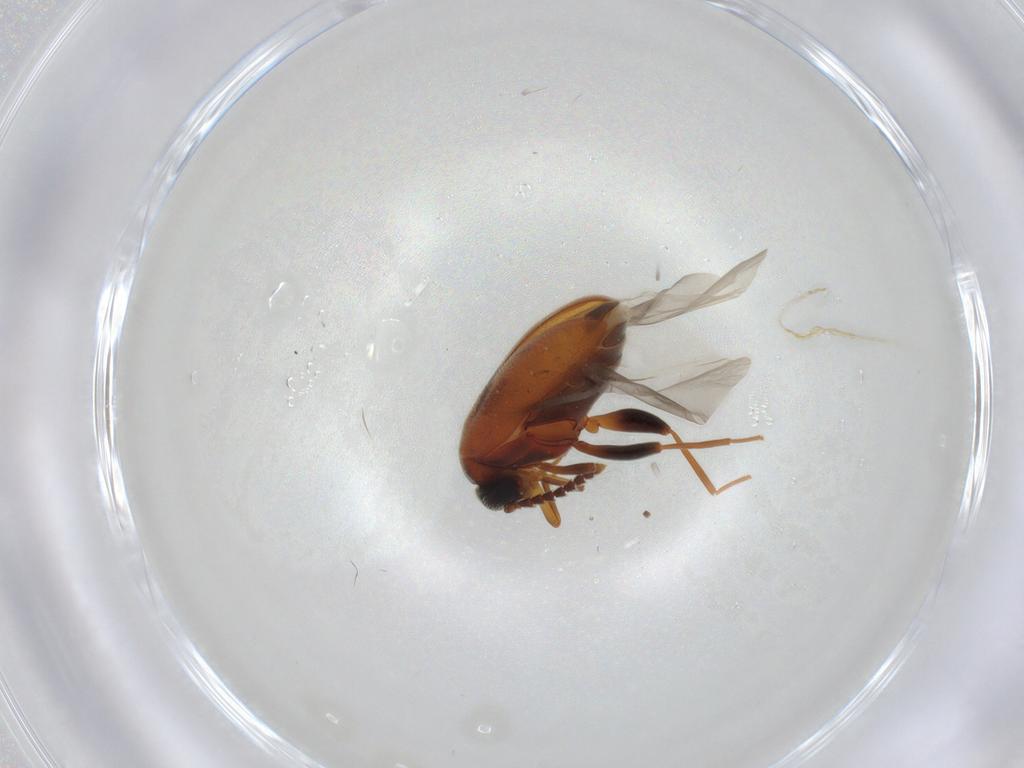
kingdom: Animalia
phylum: Arthropoda
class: Insecta
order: Coleoptera
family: Aderidae
